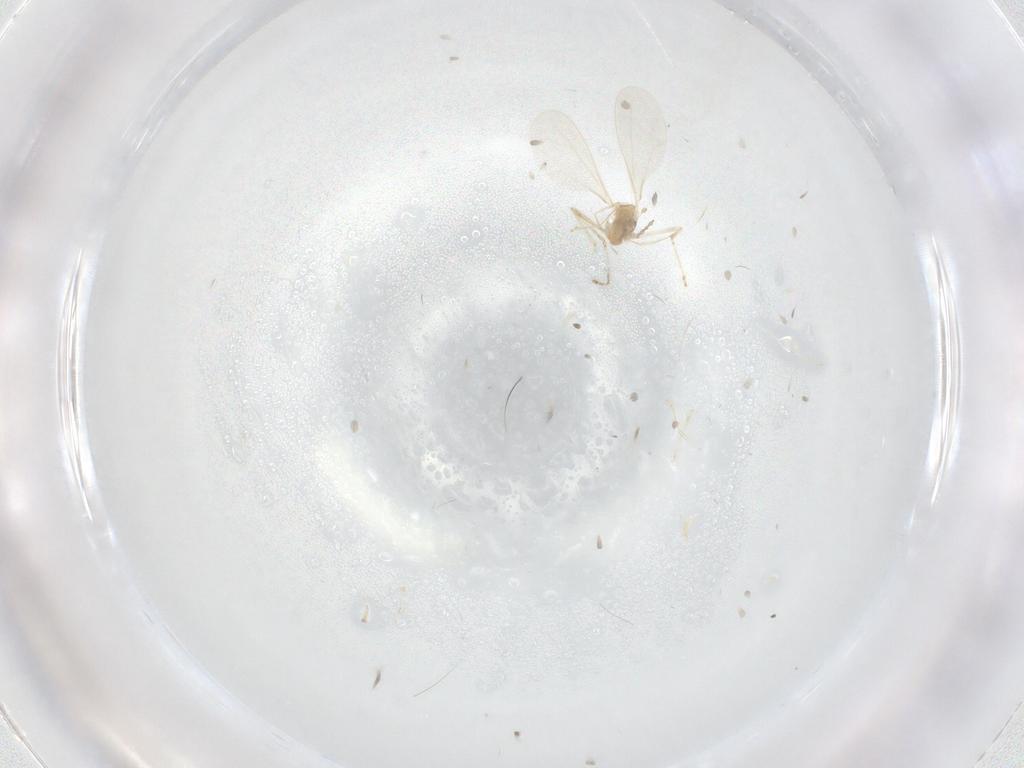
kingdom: Animalia
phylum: Arthropoda
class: Insecta
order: Diptera
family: Cecidomyiidae
